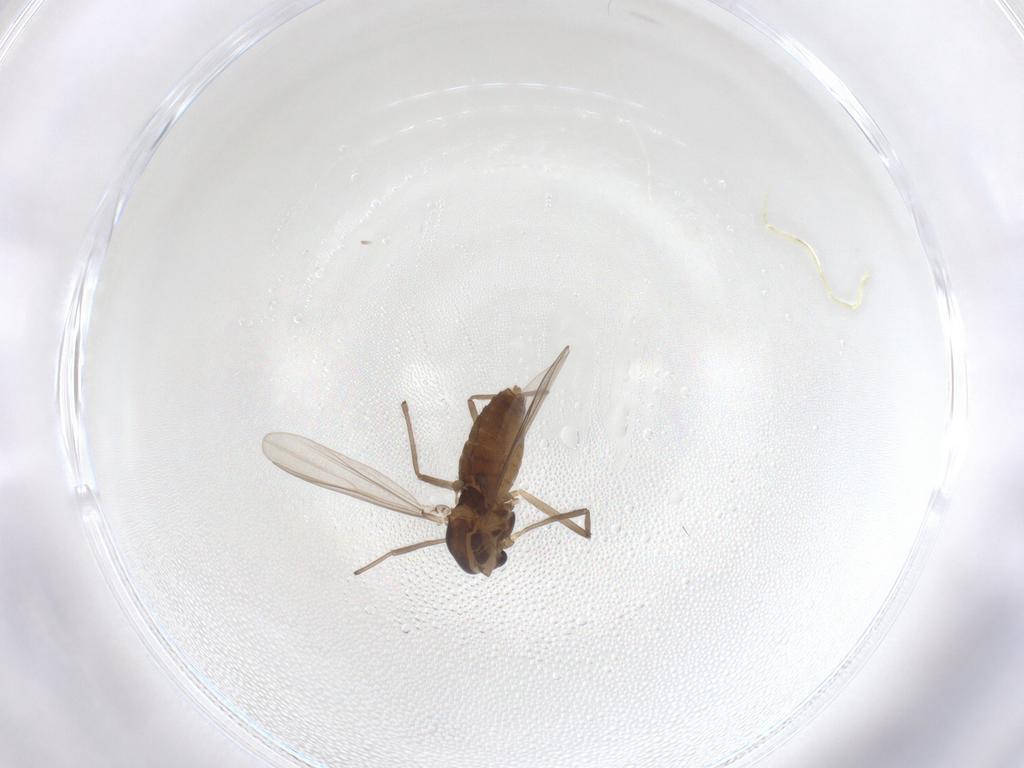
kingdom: Animalia
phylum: Arthropoda
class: Insecta
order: Diptera
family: Chironomidae
